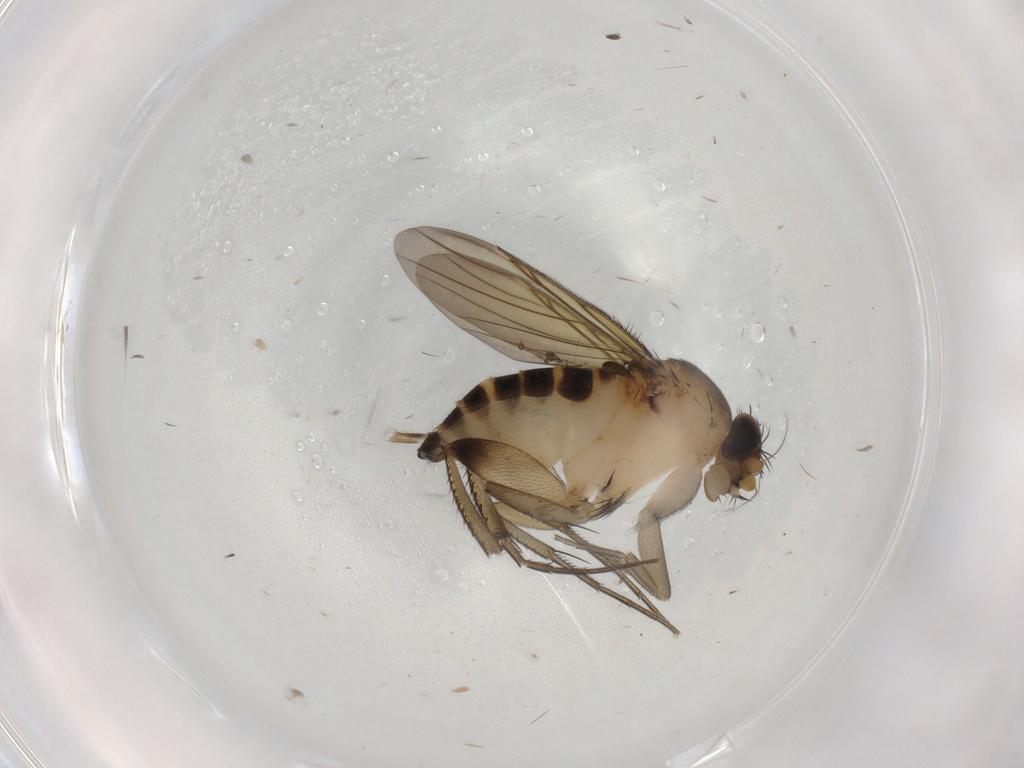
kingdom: Animalia
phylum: Arthropoda
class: Insecta
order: Diptera
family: Phoridae
